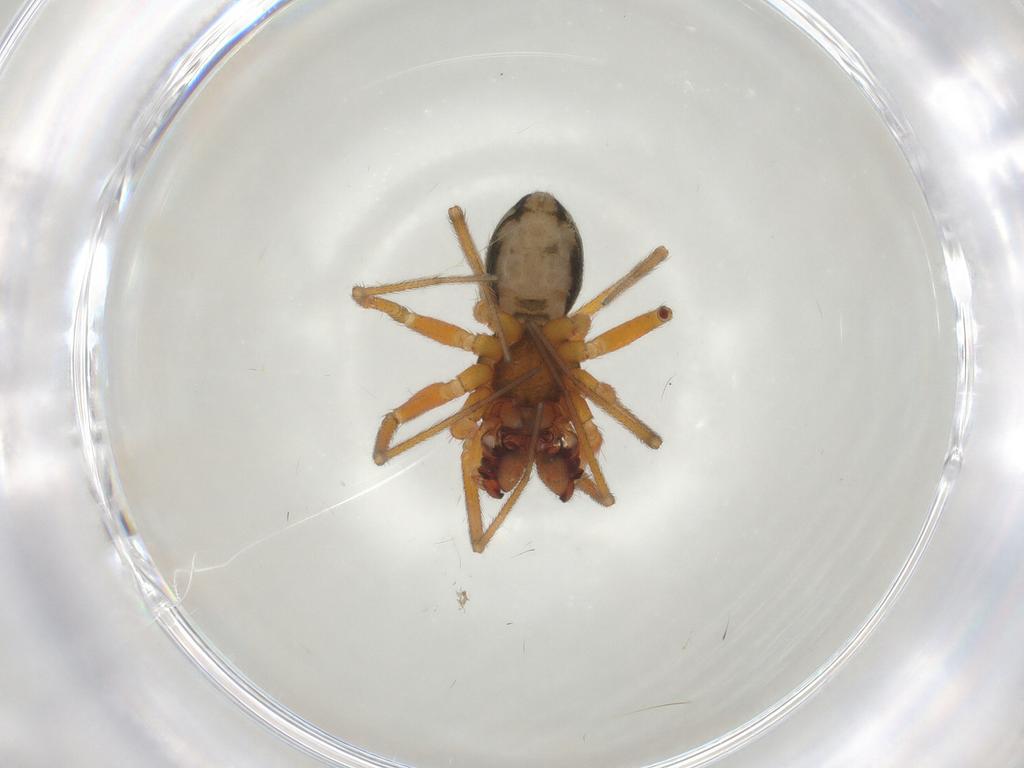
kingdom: Animalia
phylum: Arthropoda
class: Arachnida
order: Araneae
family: Linyphiidae
